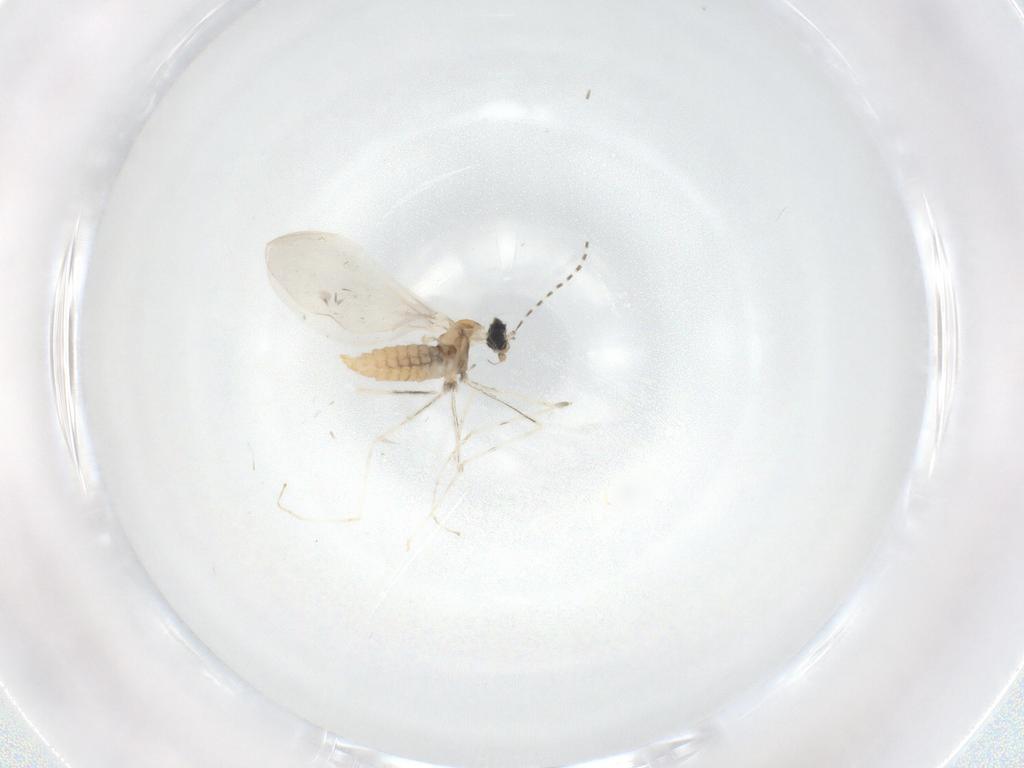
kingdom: Animalia
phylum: Arthropoda
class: Insecta
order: Diptera
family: Cecidomyiidae
